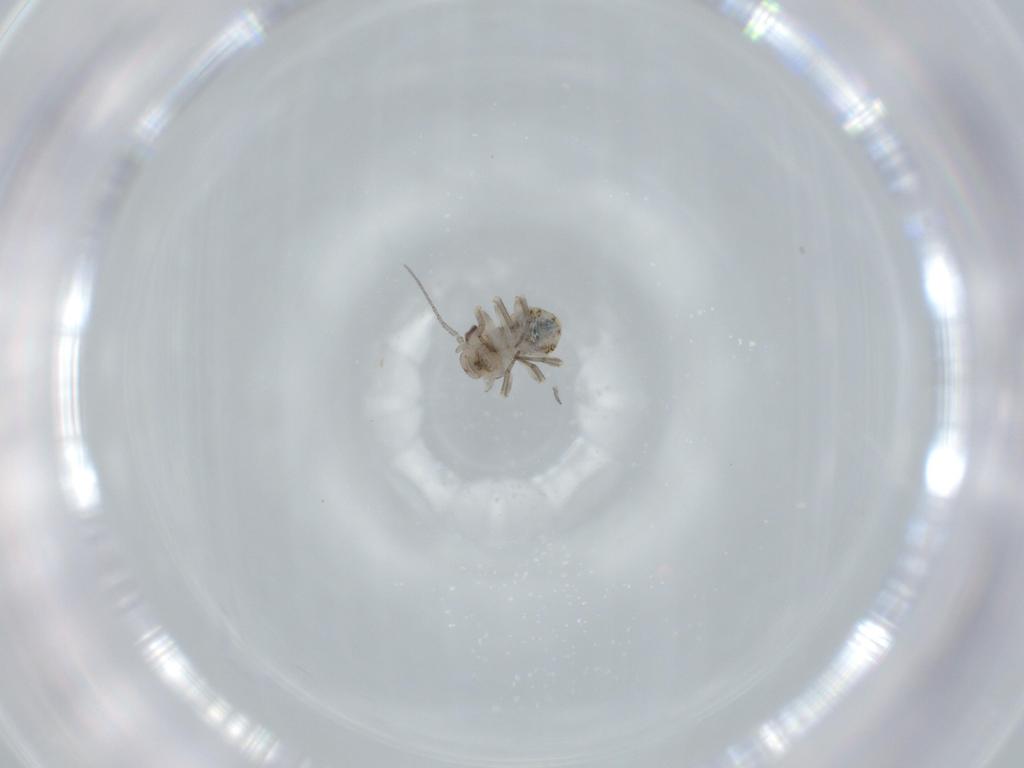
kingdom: Animalia
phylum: Arthropoda
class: Insecta
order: Psocodea
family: Psocidae
